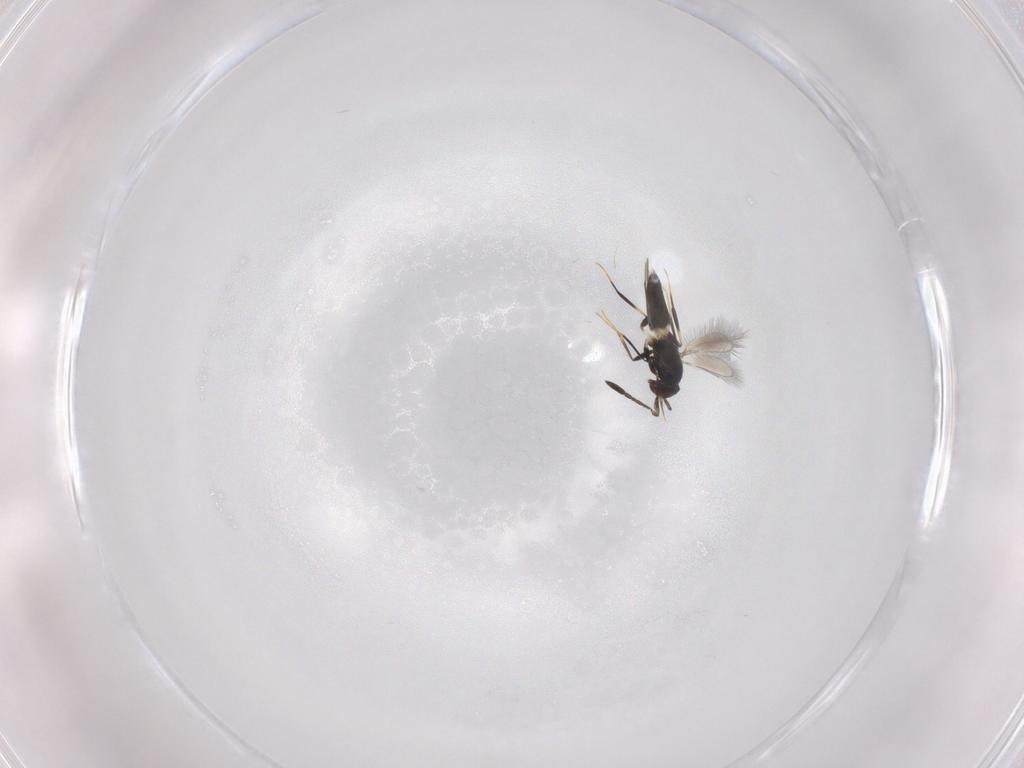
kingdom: Animalia
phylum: Arthropoda
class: Insecta
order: Hymenoptera
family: Mymaridae
